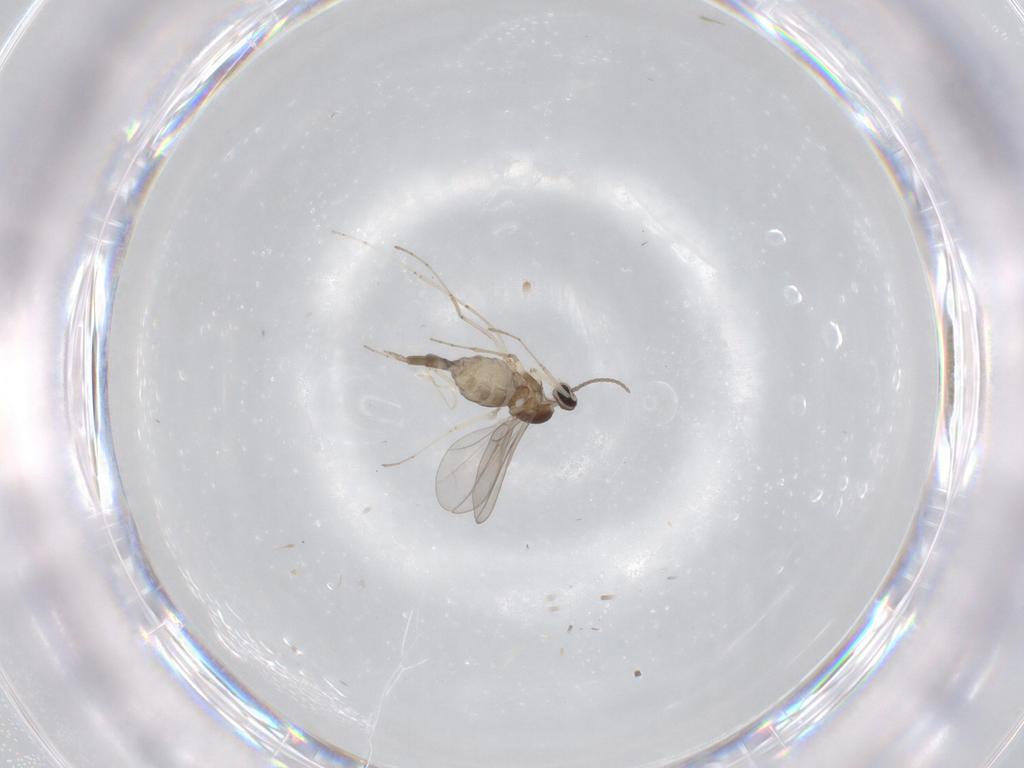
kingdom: Animalia
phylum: Arthropoda
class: Insecta
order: Diptera
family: Cecidomyiidae
